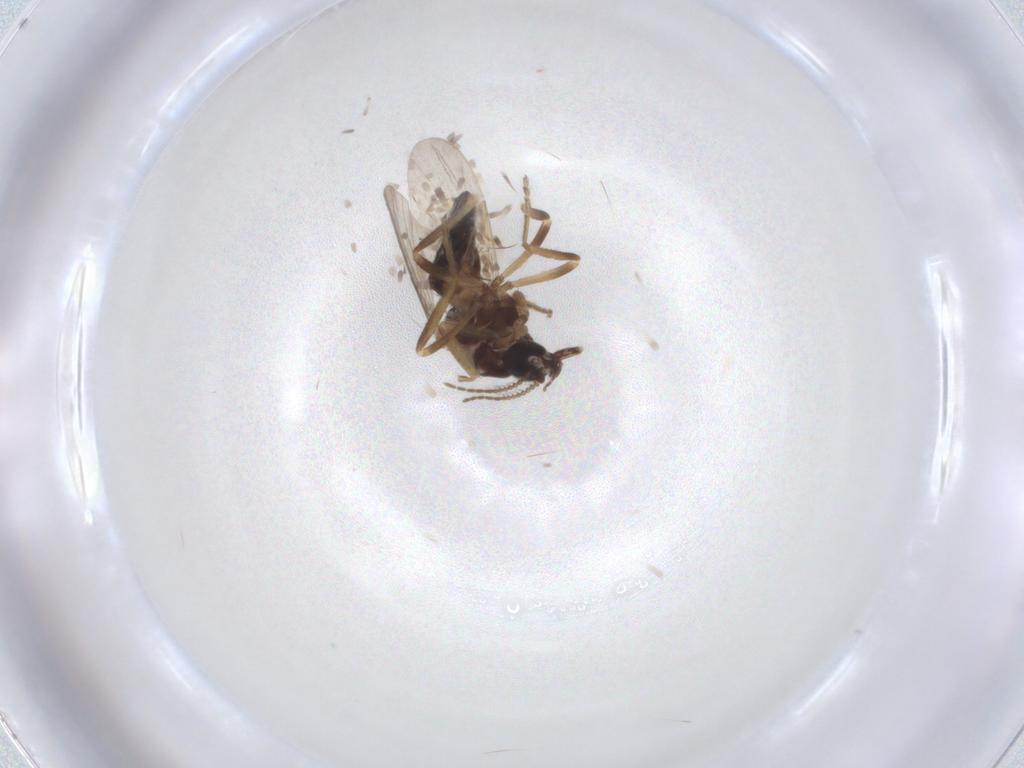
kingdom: Animalia
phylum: Arthropoda
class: Insecta
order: Diptera
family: Ceratopogonidae
